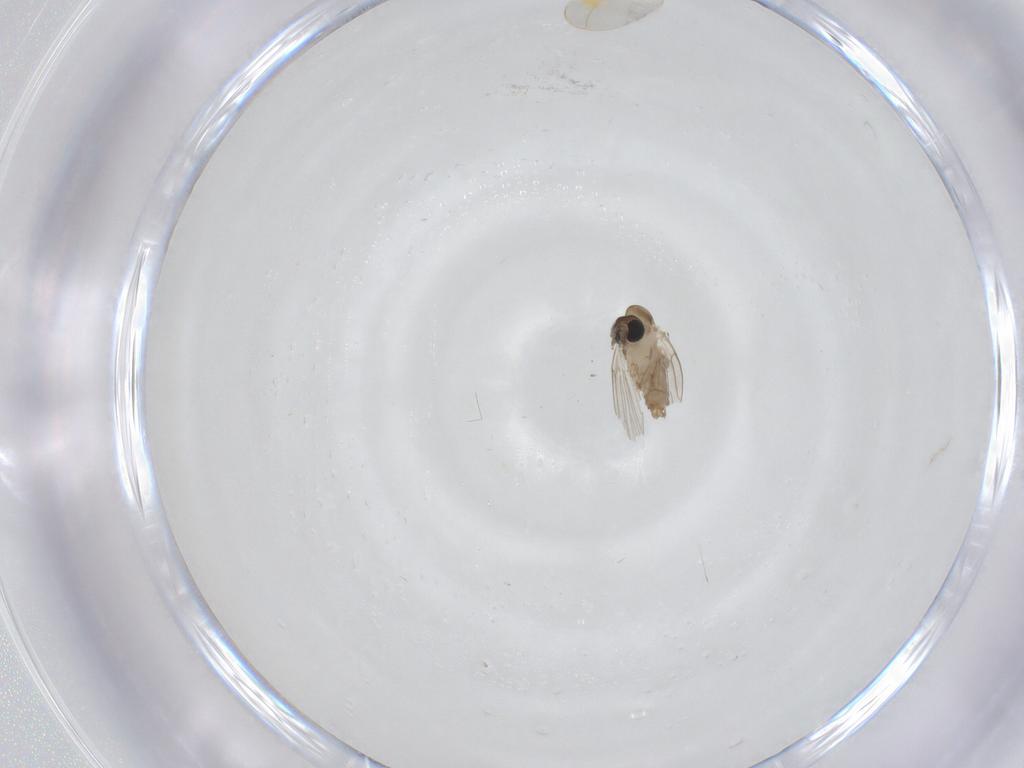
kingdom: Animalia
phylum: Arthropoda
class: Insecta
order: Diptera
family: Psychodidae
